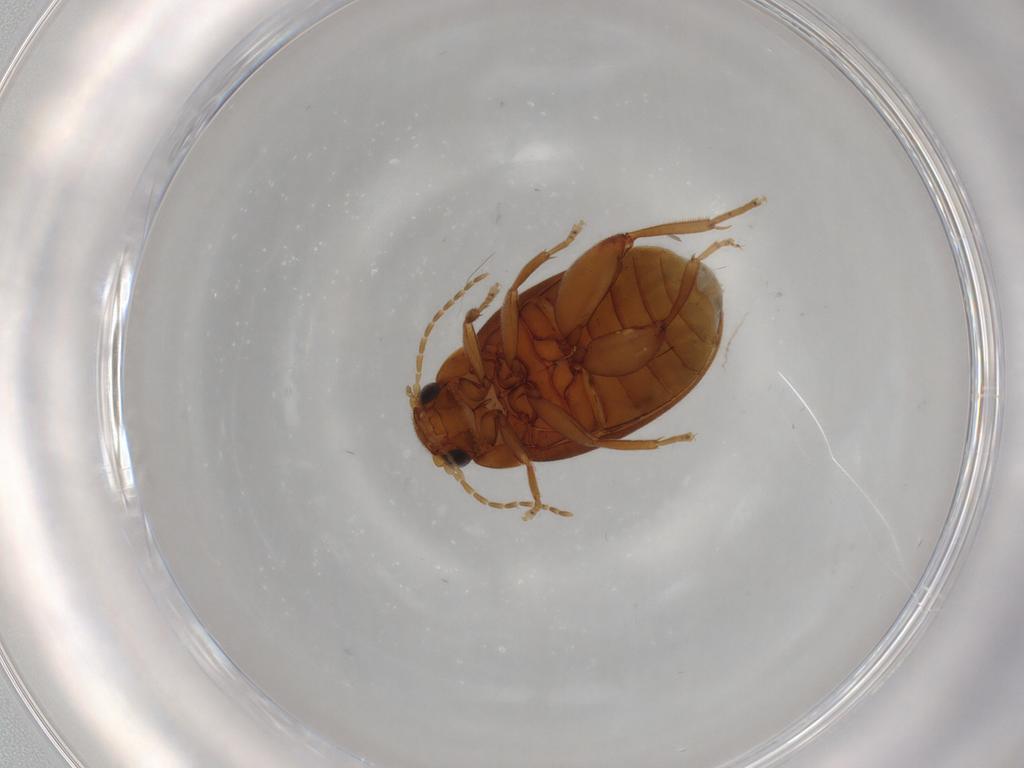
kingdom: Animalia
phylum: Arthropoda
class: Insecta
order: Coleoptera
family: Scirtidae
